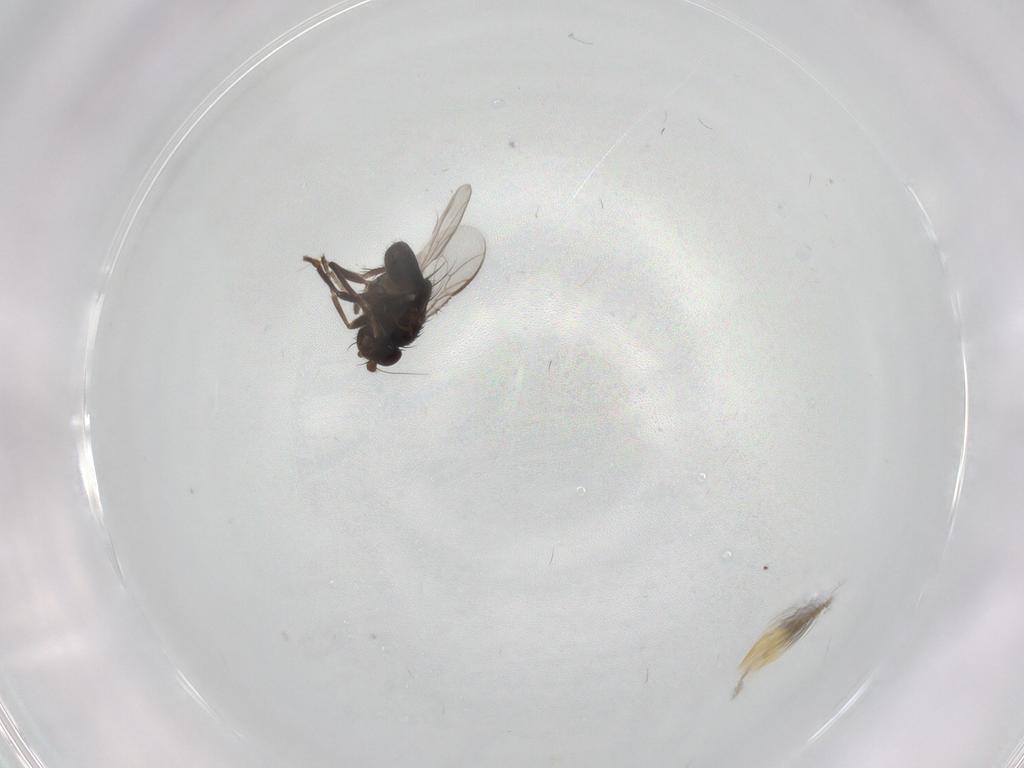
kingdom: Animalia
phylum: Arthropoda
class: Insecta
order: Diptera
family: Sphaeroceridae
